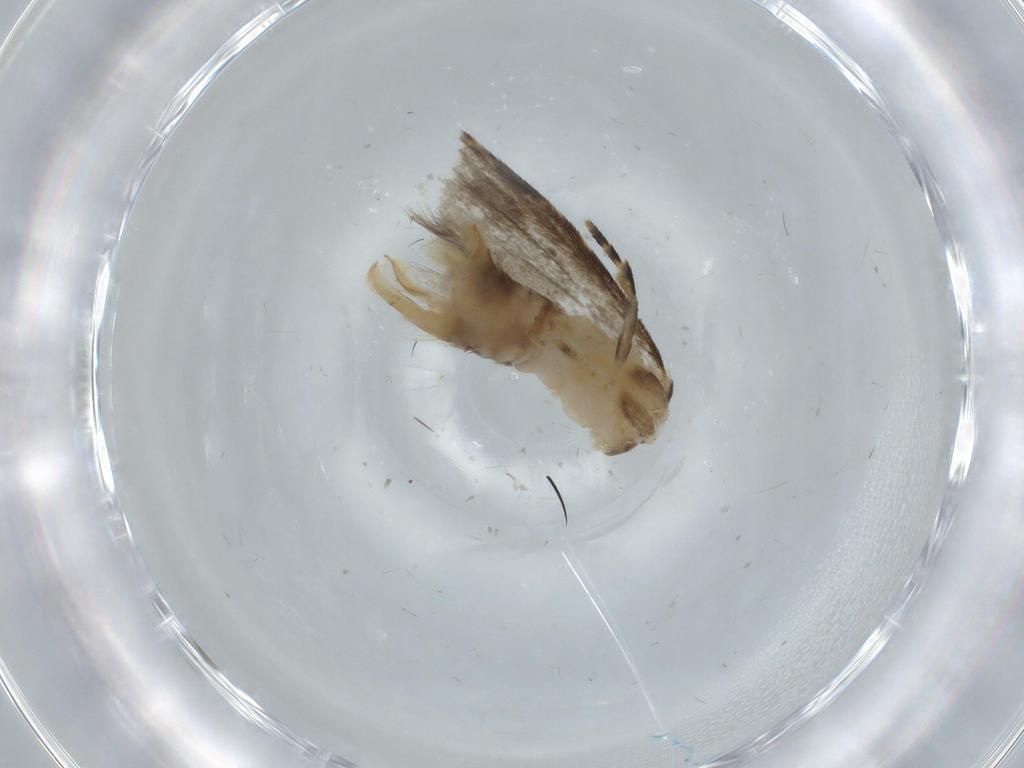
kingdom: Animalia
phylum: Arthropoda
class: Insecta
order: Lepidoptera
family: Tineidae
